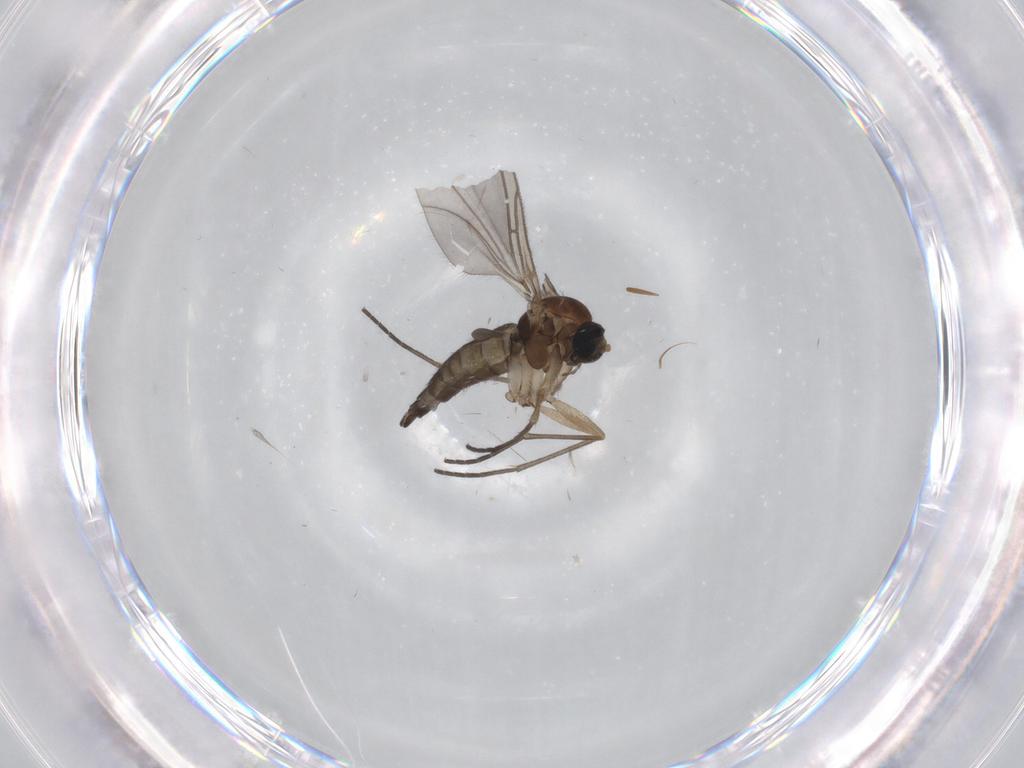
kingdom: Animalia
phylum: Arthropoda
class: Insecta
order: Diptera
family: Sciaridae
